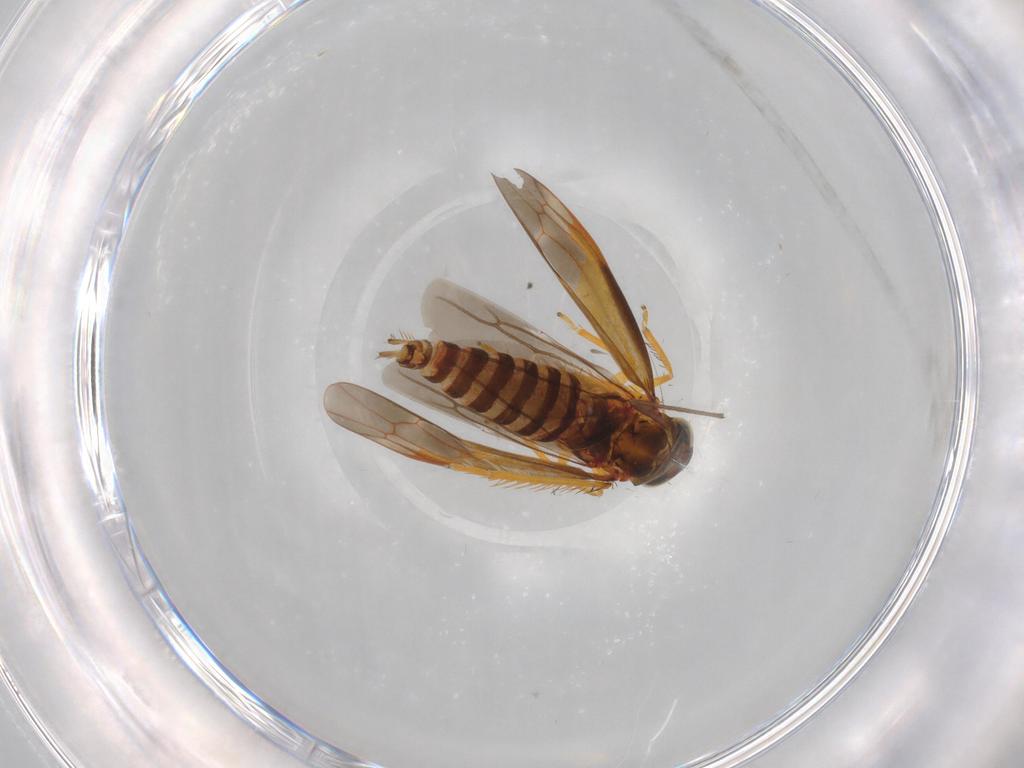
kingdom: Animalia
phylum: Arthropoda
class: Insecta
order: Hemiptera
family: Cicadellidae
